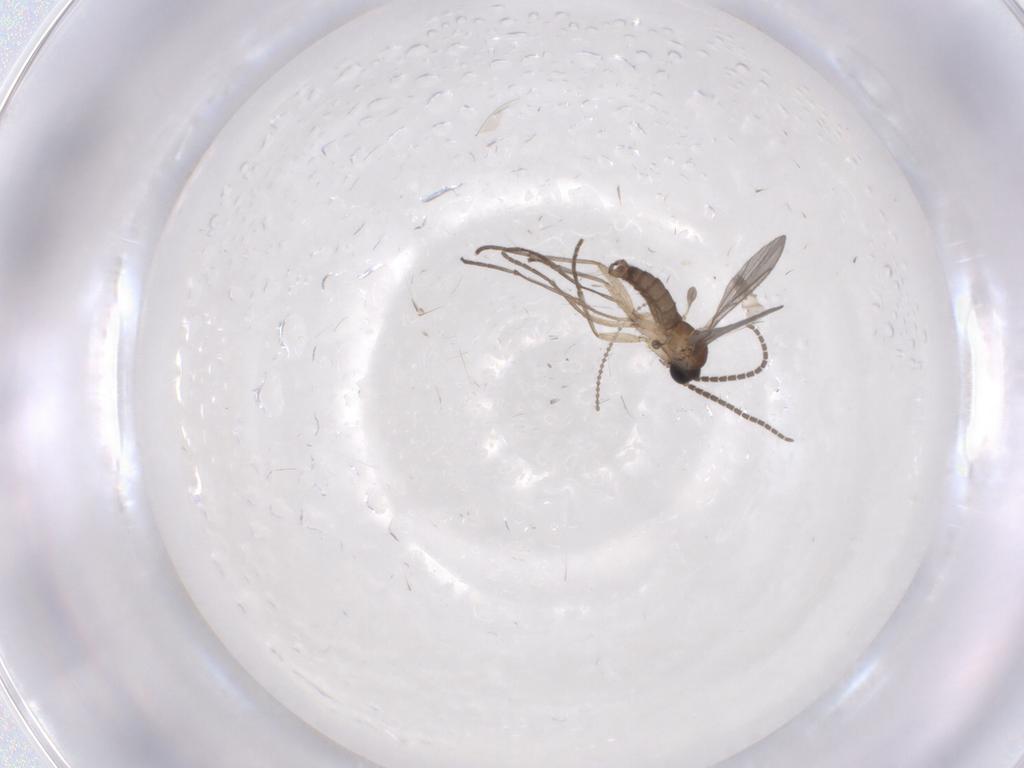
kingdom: Animalia
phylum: Arthropoda
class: Insecta
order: Diptera
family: Sciaridae
